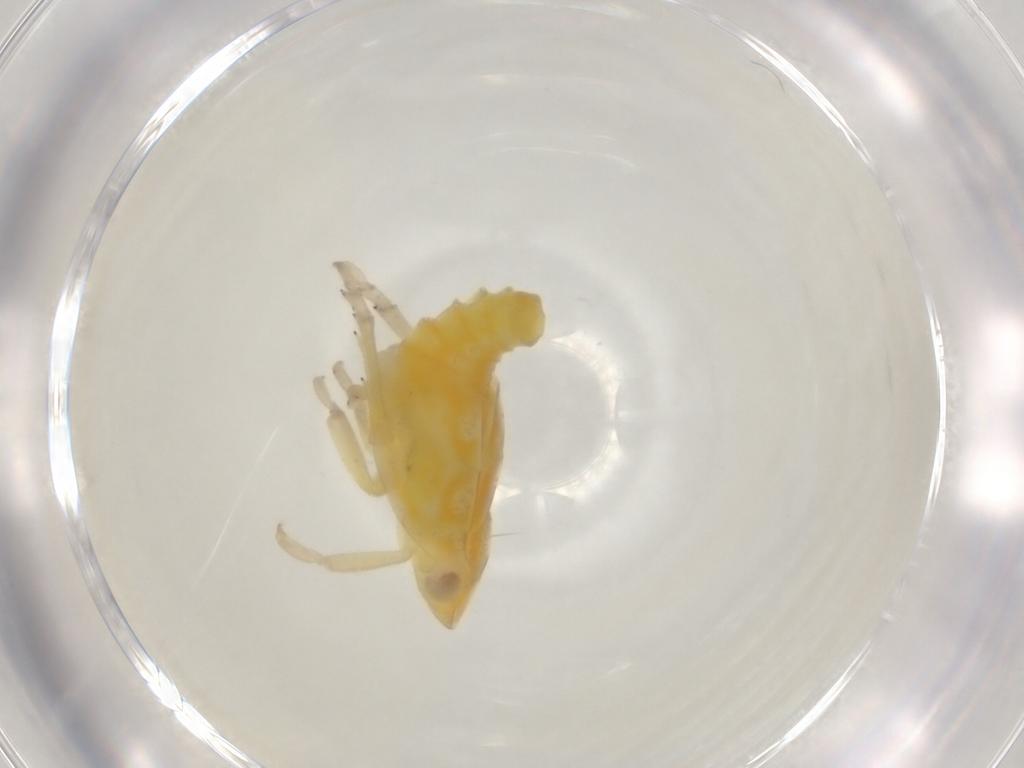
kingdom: Animalia
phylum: Arthropoda
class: Insecta
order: Hemiptera
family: Tropiduchidae
